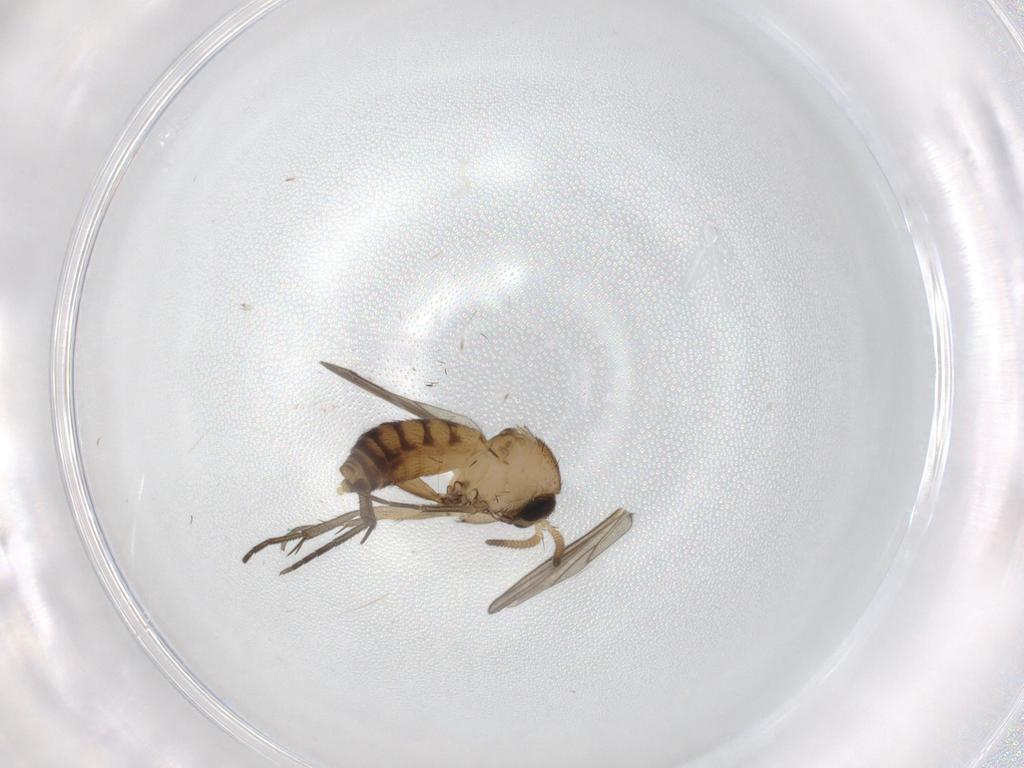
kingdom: Animalia
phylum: Arthropoda
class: Insecta
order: Diptera
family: Mycetophilidae
